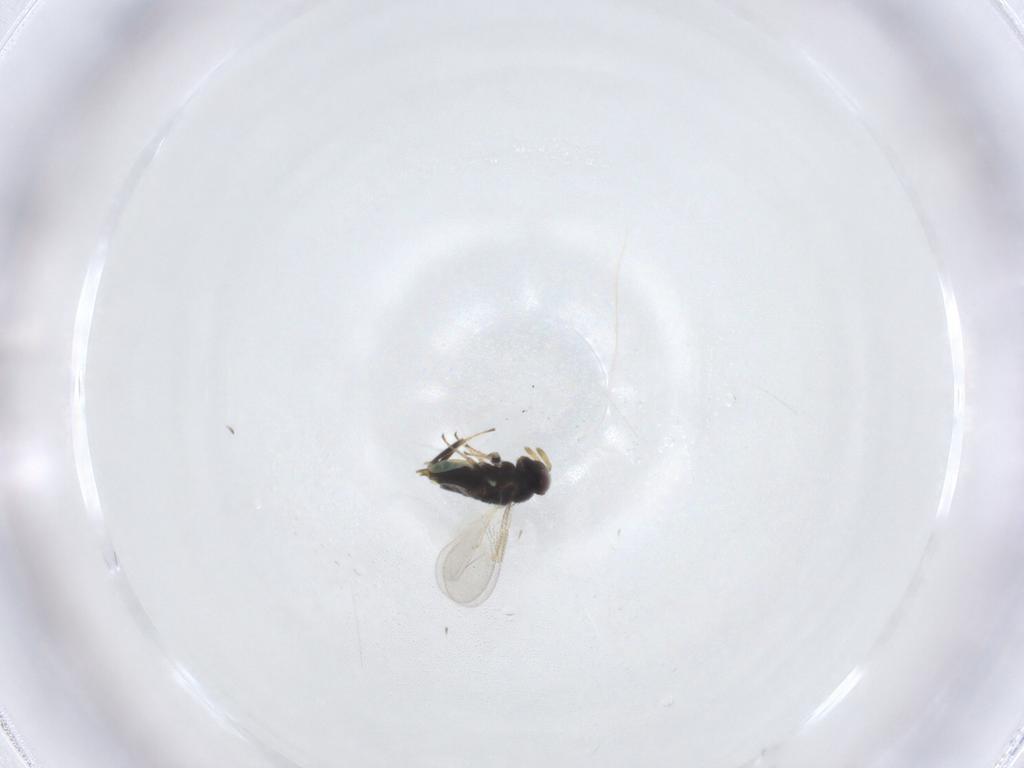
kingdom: Animalia
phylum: Arthropoda
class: Insecta
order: Hymenoptera
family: Aphelinidae
